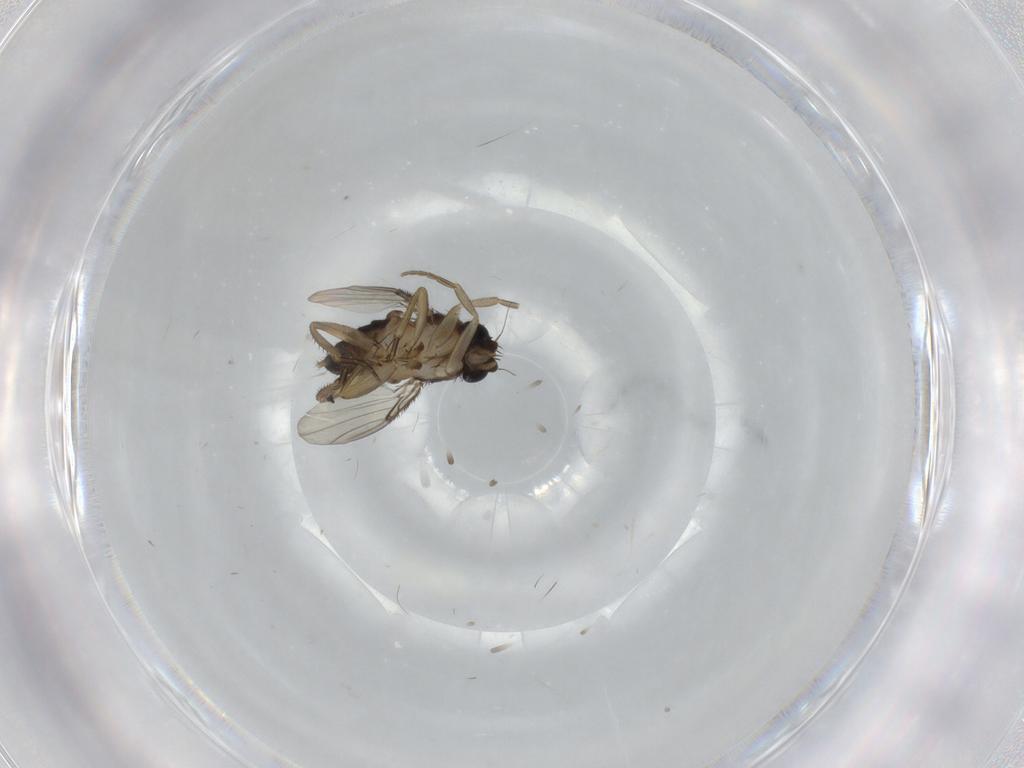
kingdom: Animalia
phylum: Arthropoda
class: Insecta
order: Diptera
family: Phoridae
